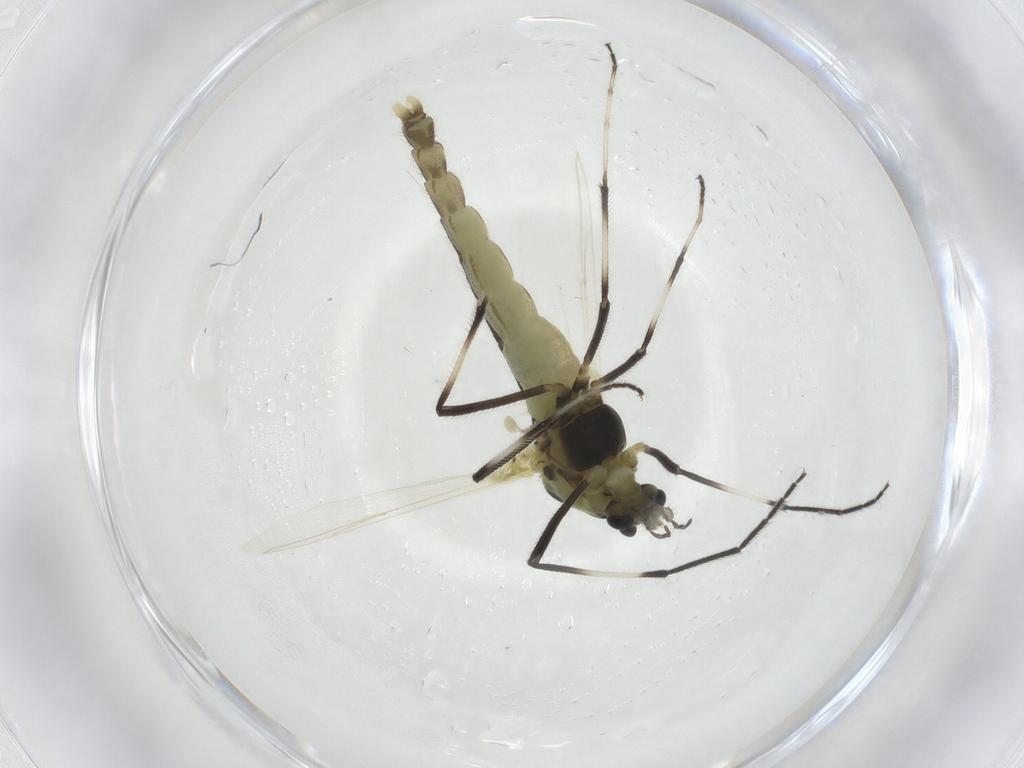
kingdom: Animalia
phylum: Arthropoda
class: Insecta
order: Diptera
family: Chironomidae
